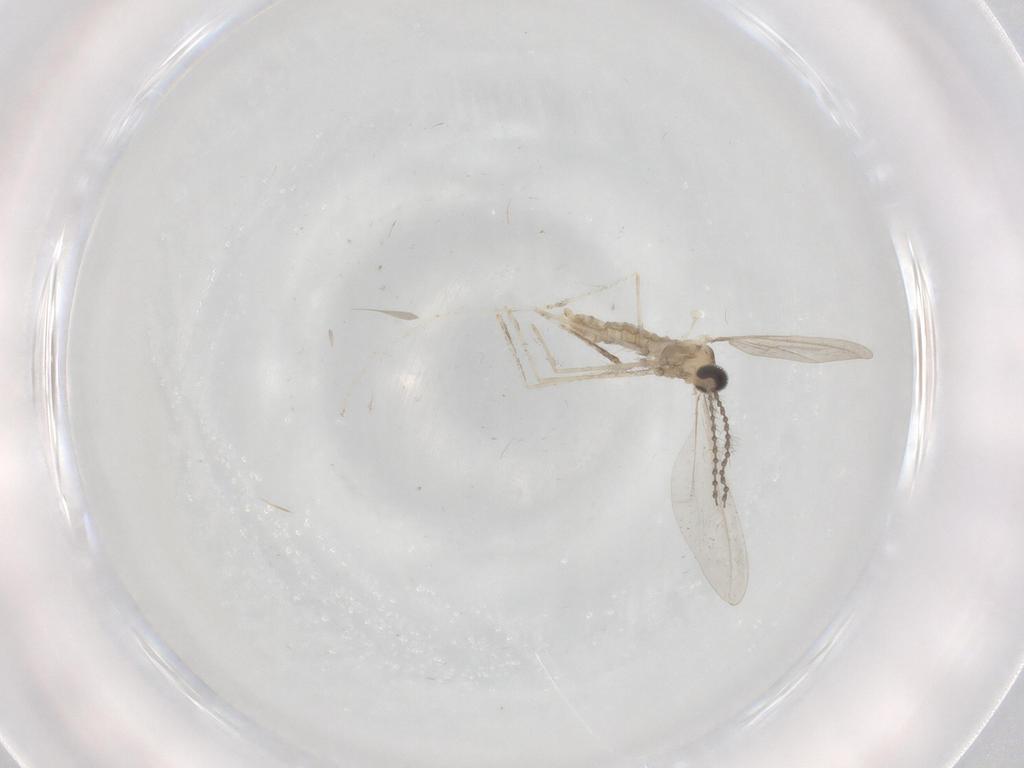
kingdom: Animalia
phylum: Arthropoda
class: Insecta
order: Diptera
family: Cecidomyiidae
